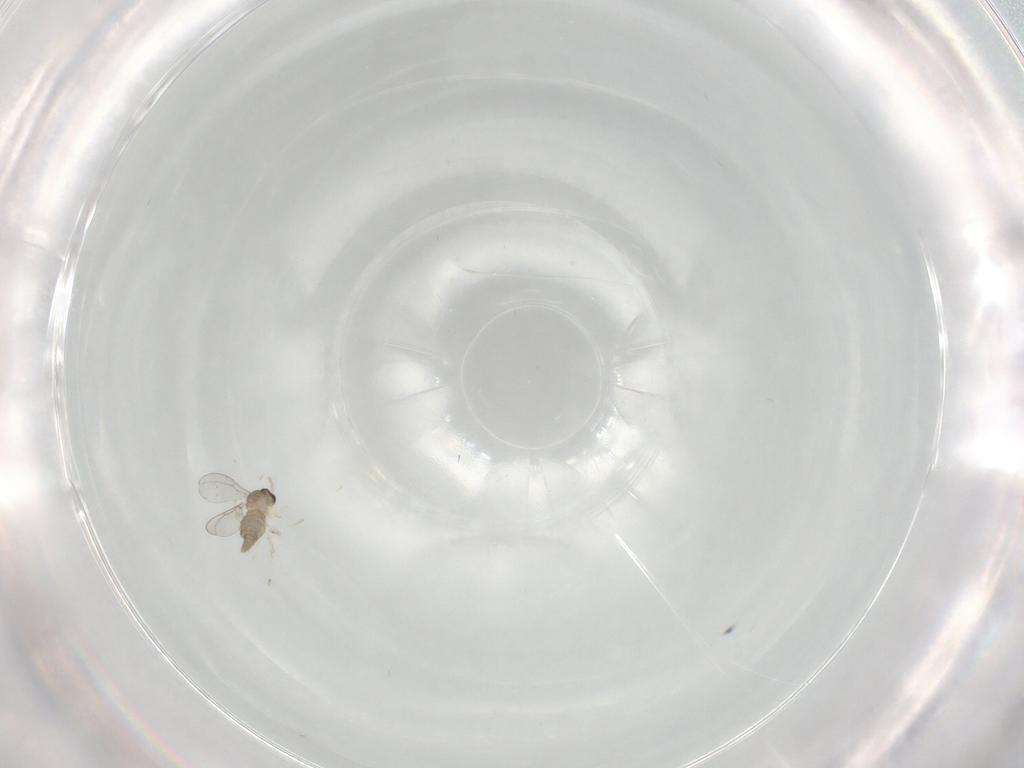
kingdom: Animalia
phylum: Arthropoda
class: Insecta
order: Diptera
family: Cecidomyiidae
